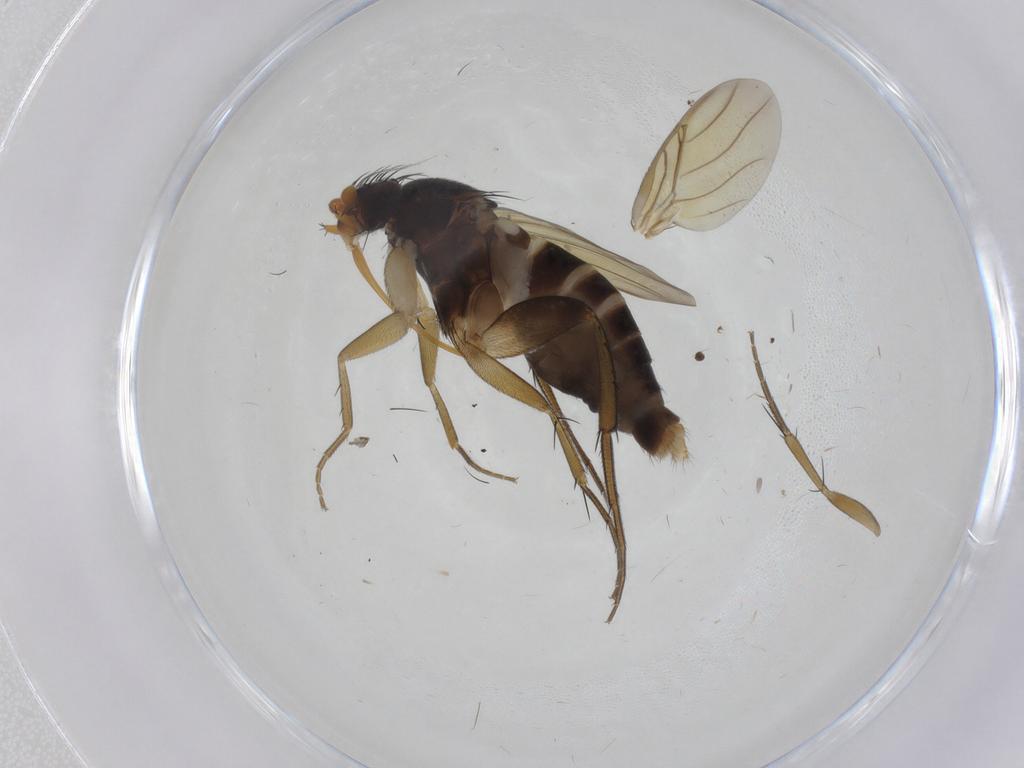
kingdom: Animalia
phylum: Arthropoda
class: Insecta
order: Diptera
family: Phoridae
